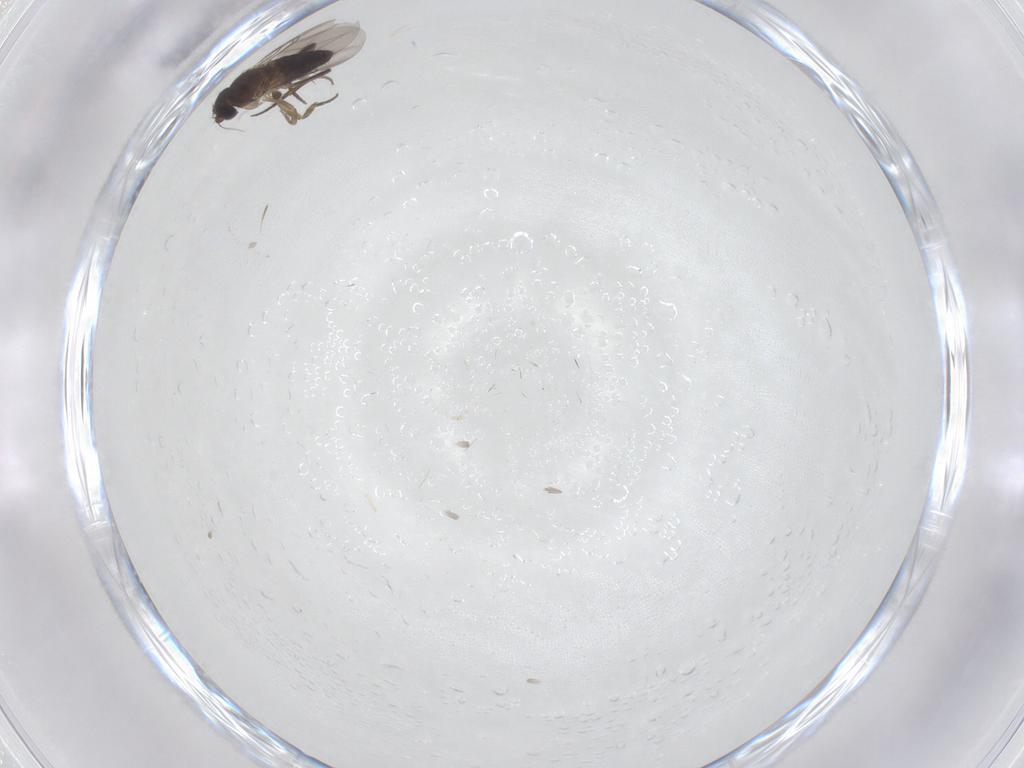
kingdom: Animalia
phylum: Arthropoda
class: Insecta
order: Diptera
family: Phoridae
